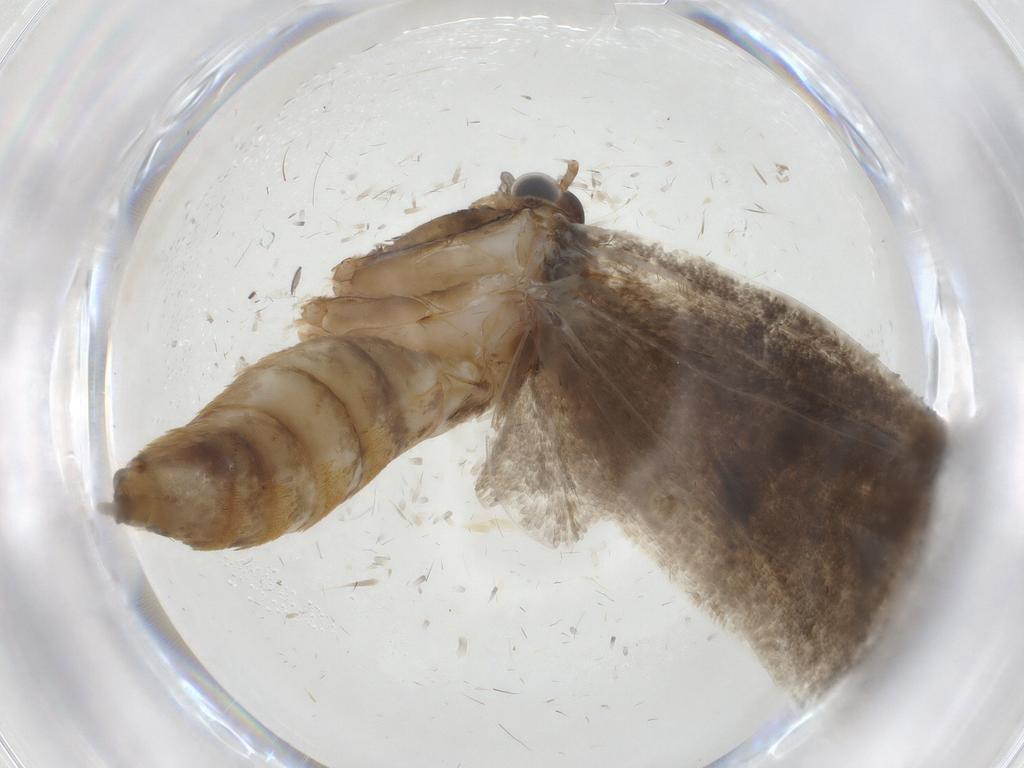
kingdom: Animalia
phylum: Arthropoda
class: Insecta
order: Lepidoptera
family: Oecophoridae
